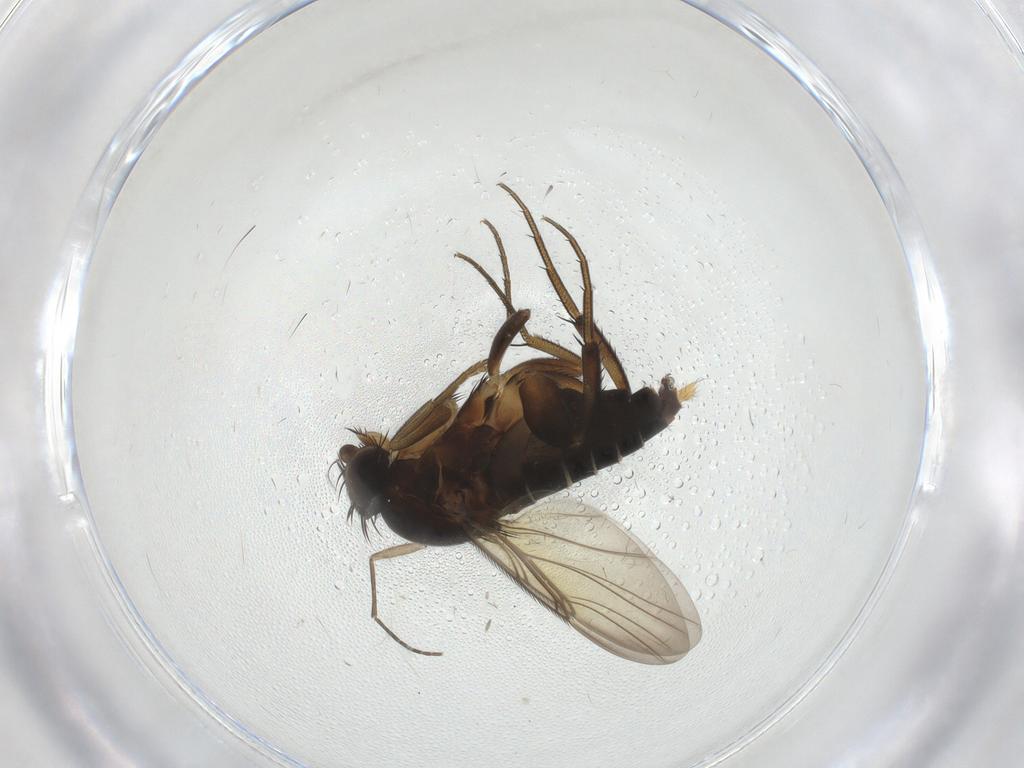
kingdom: Animalia
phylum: Arthropoda
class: Insecta
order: Diptera
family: Phoridae
